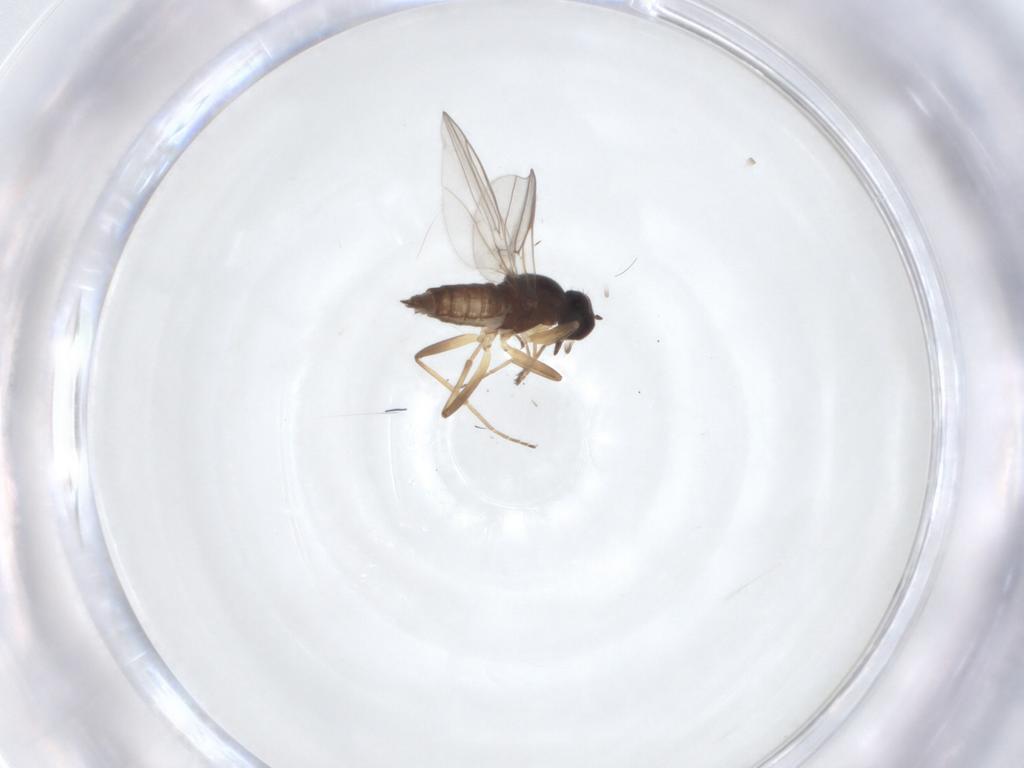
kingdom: Animalia
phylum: Arthropoda
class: Insecta
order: Diptera
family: Hybotidae
